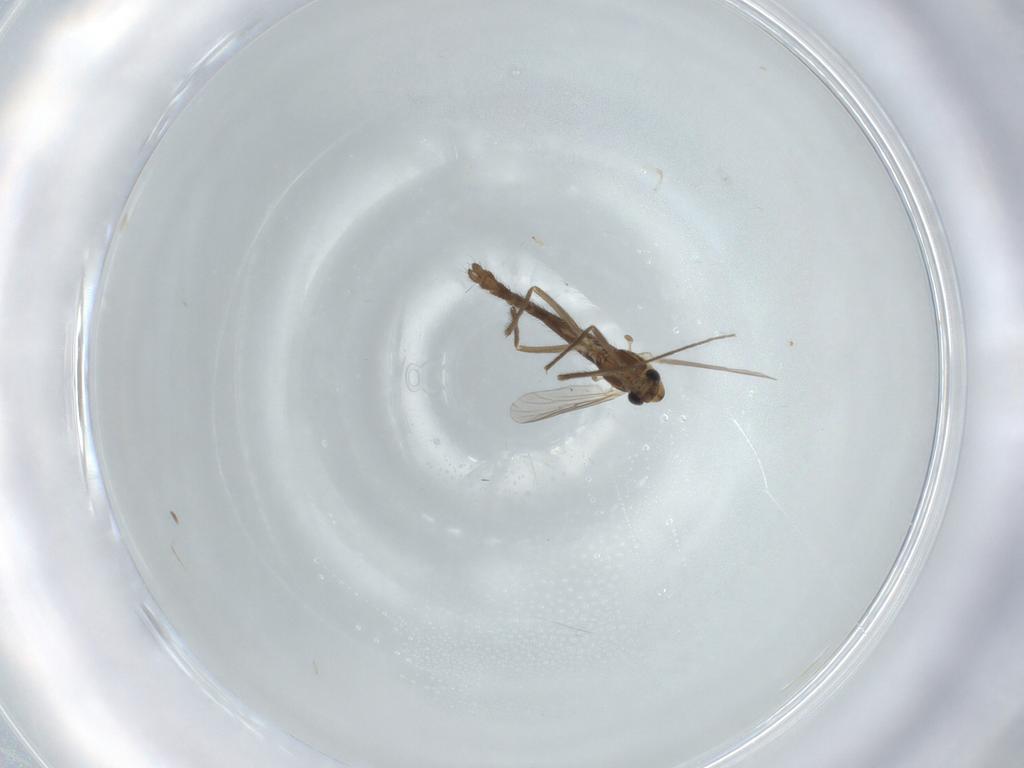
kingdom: Animalia
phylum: Arthropoda
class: Insecta
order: Diptera
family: Chironomidae
